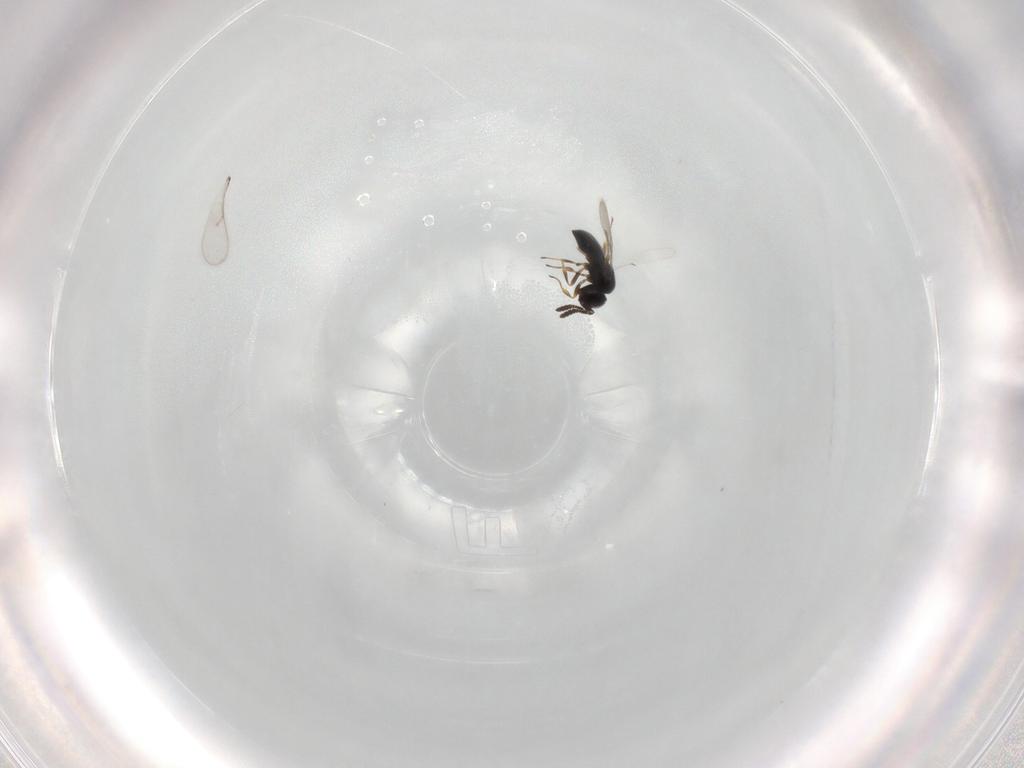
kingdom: Animalia
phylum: Arthropoda
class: Insecta
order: Hymenoptera
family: Scelionidae
